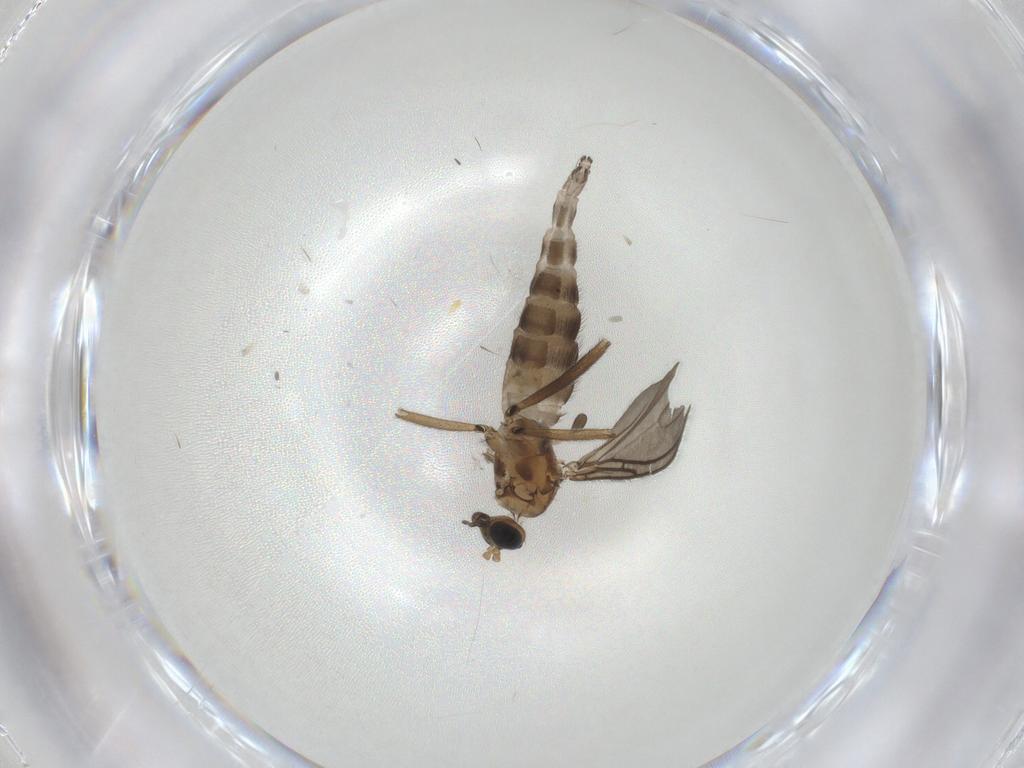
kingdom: Animalia
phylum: Arthropoda
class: Insecta
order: Diptera
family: Sciaridae
